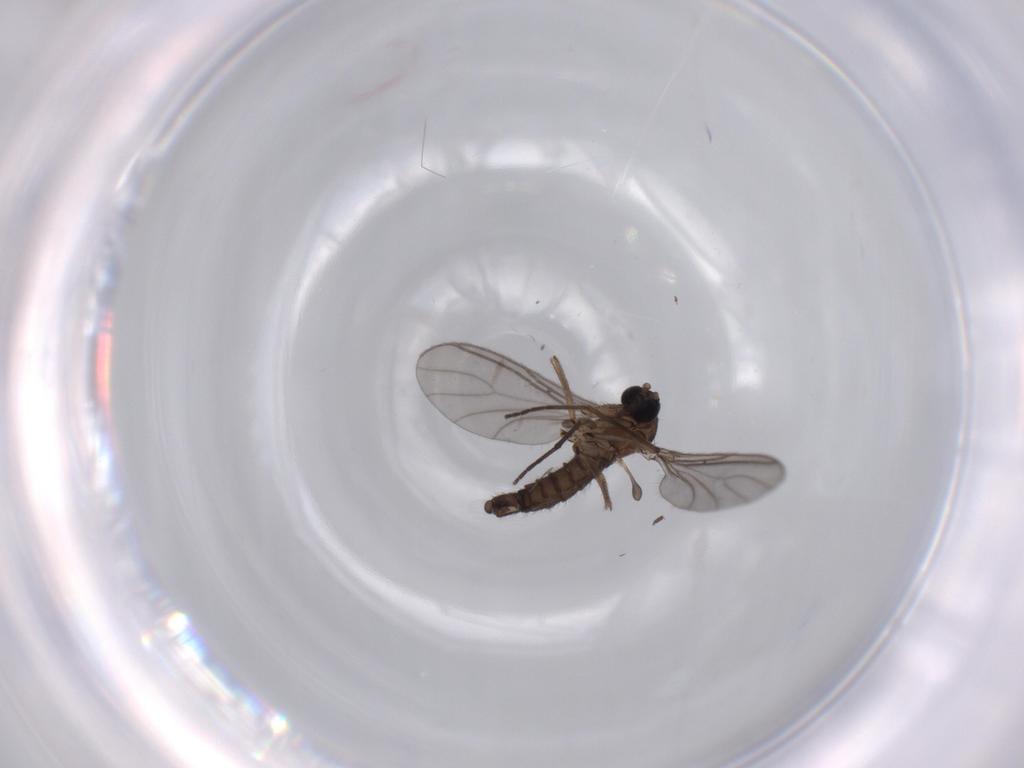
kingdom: Animalia
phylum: Arthropoda
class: Insecta
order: Diptera
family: Sciaridae
